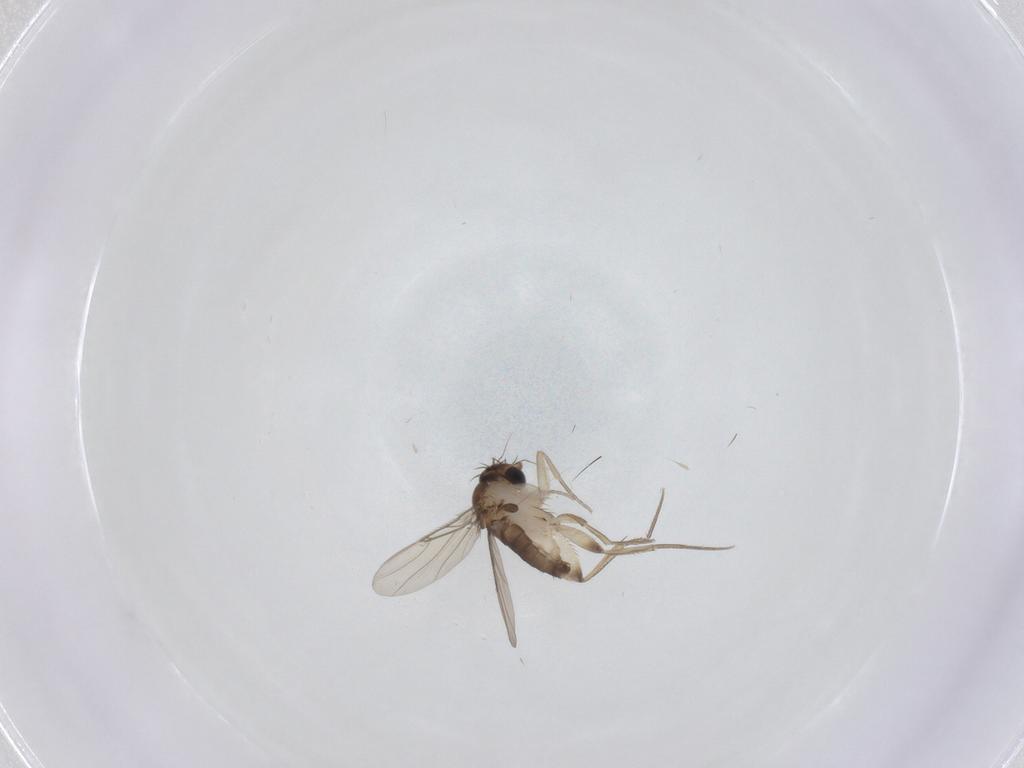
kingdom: Animalia
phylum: Arthropoda
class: Insecta
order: Diptera
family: Phoridae
